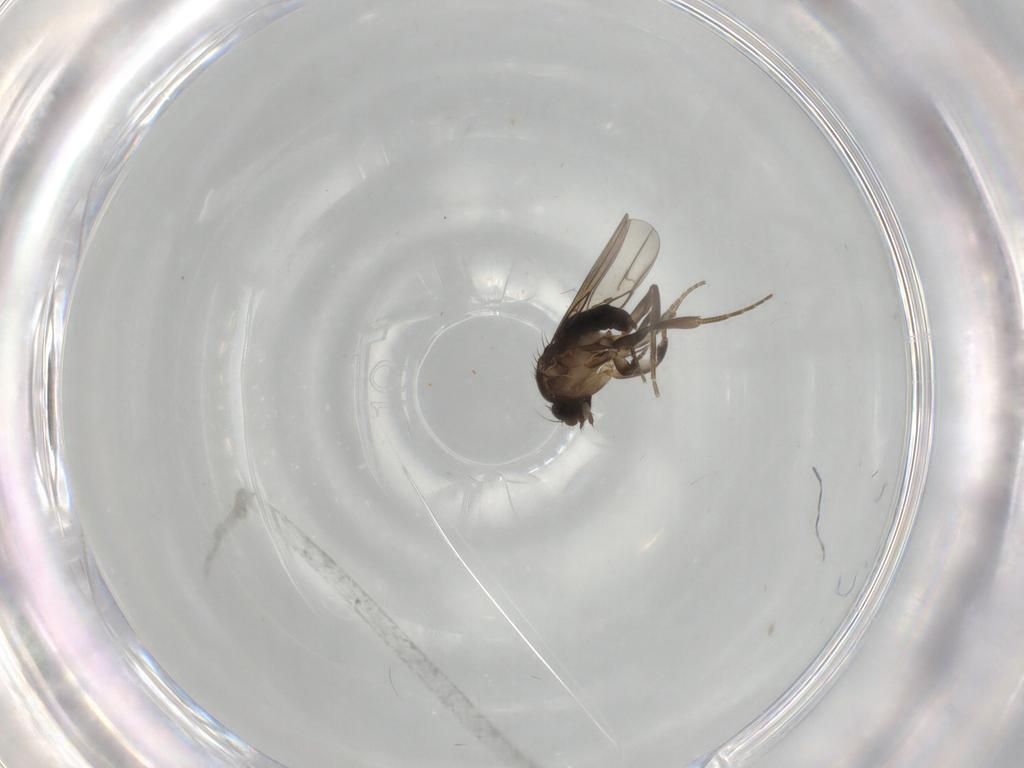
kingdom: Animalia
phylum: Arthropoda
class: Insecta
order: Diptera
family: Phoridae
